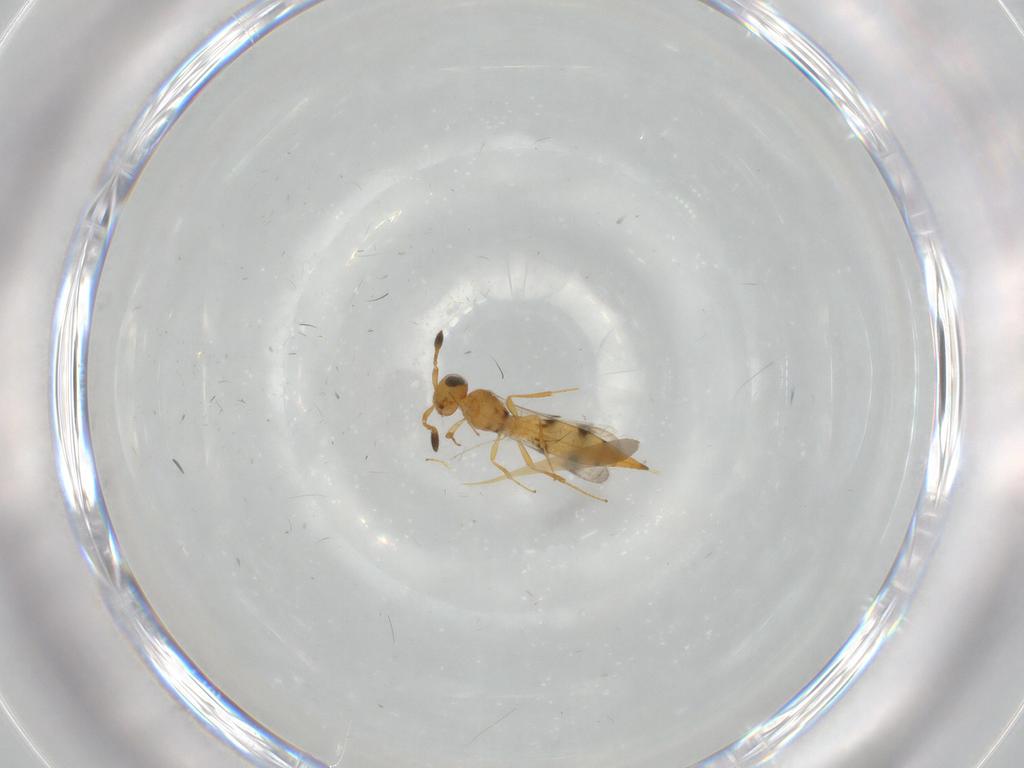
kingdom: Animalia
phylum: Arthropoda
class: Insecta
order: Hymenoptera
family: Scelionidae
